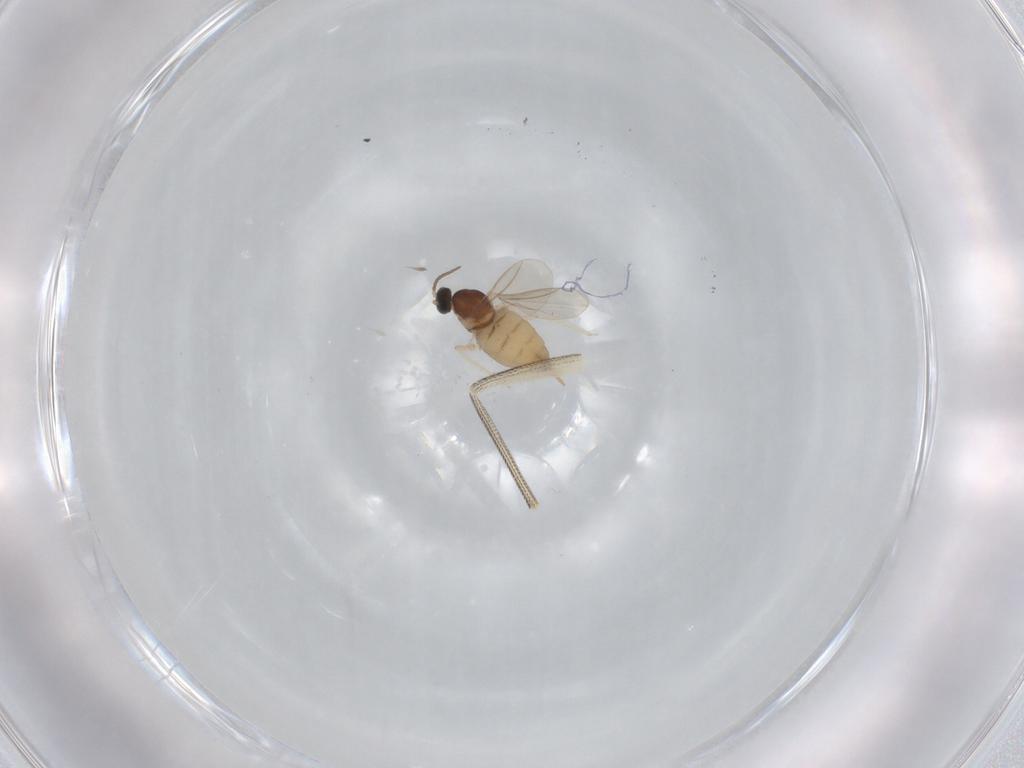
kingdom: Animalia
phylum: Arthropoda
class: Insecta
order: Diptera
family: Dolichopodidae
